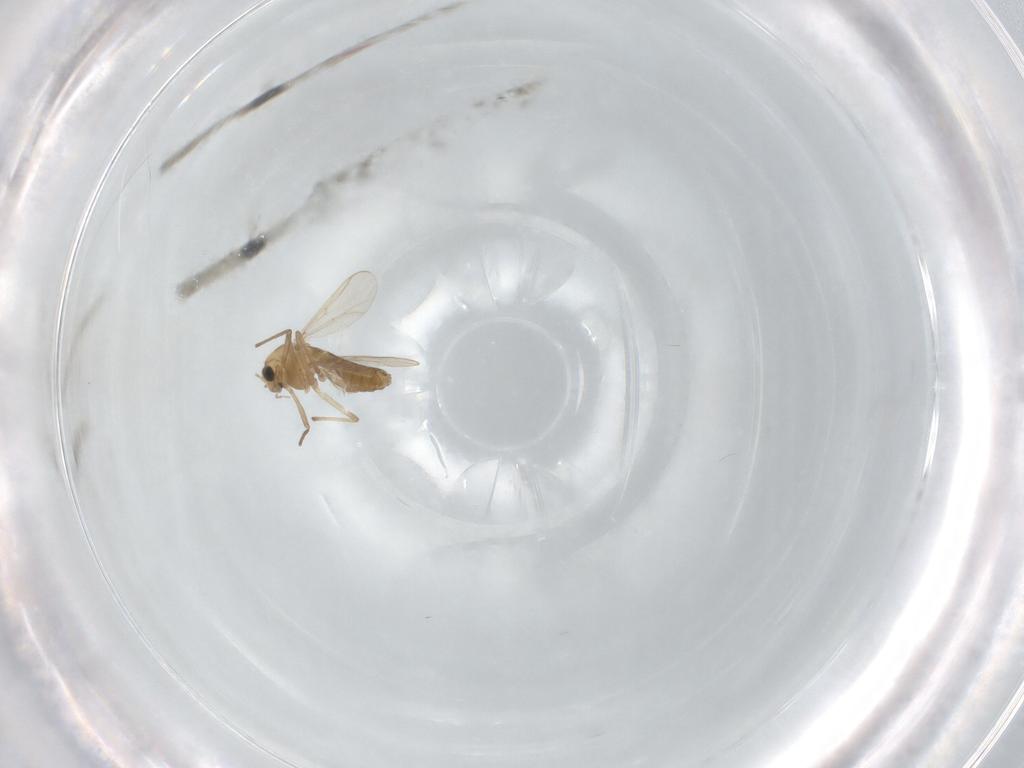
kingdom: Animalia
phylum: Arthropoda
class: Insecta
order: Diptera
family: Chironomidae
